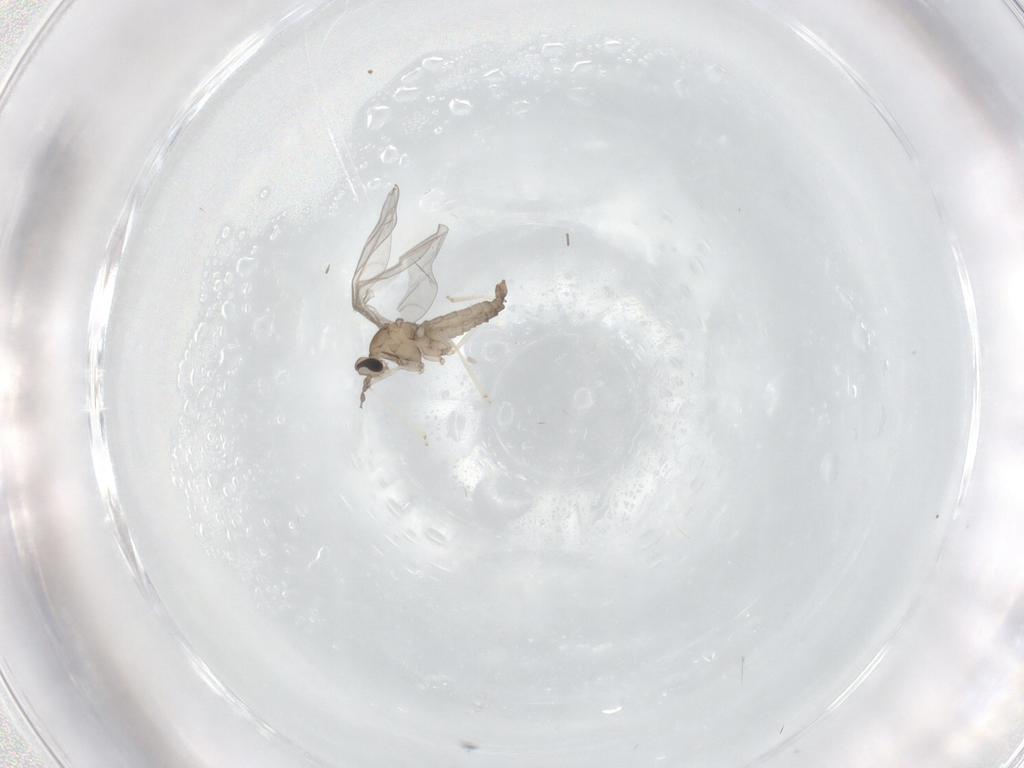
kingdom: Animalia
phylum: Arthropoda
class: Insecta
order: Diptera
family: Cecidomyiidae
